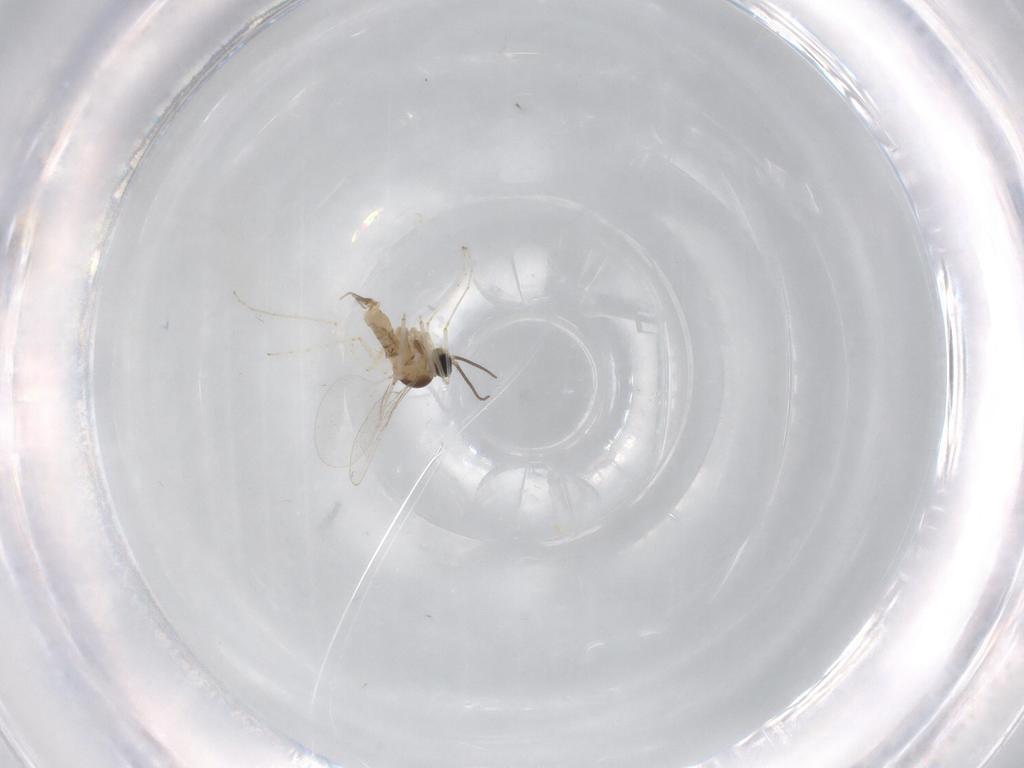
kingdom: Animalia
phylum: Arthropoda
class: Insecta
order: Diptera
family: Cecidomyiidae
